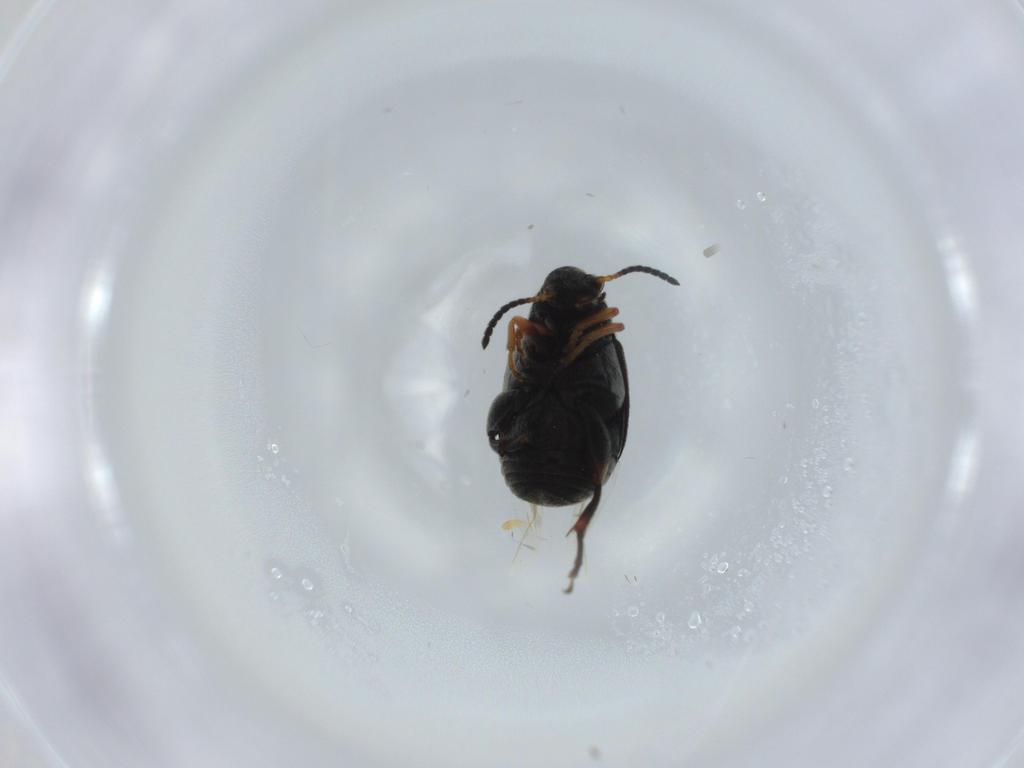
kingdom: Animalia
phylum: Arthropoda
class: Insecta
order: Coleoptera
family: Chrysomelidae
